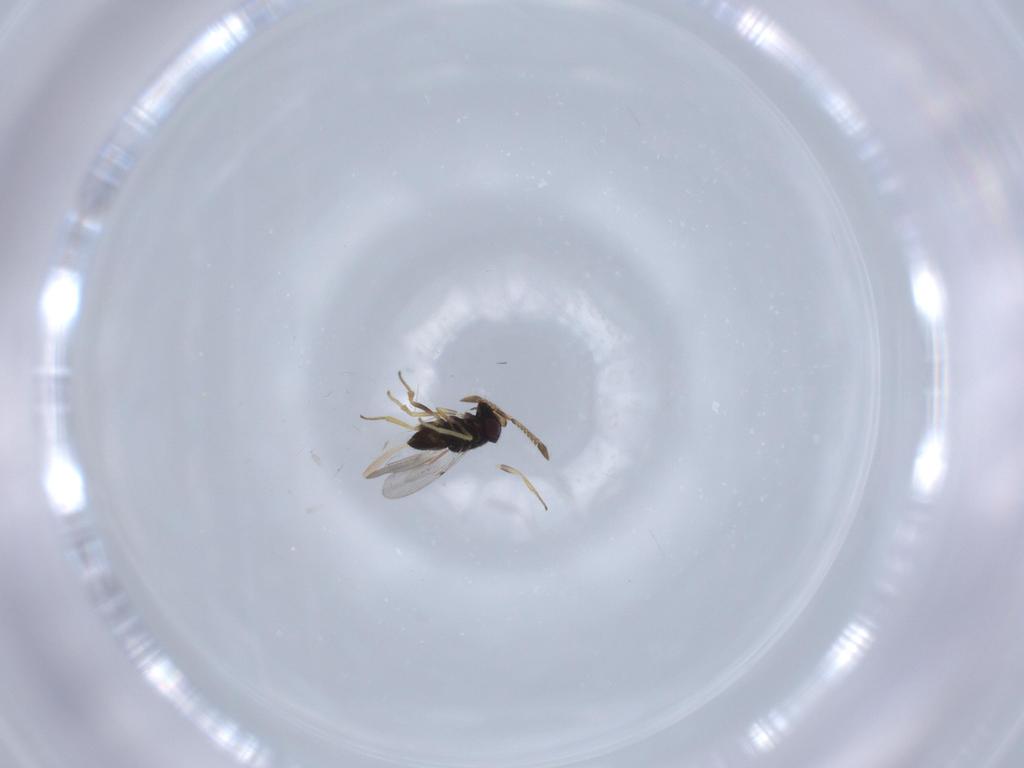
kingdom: Animalia
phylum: Arthropoda
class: Insecta
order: Hymenoptera
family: Encyrtidae
